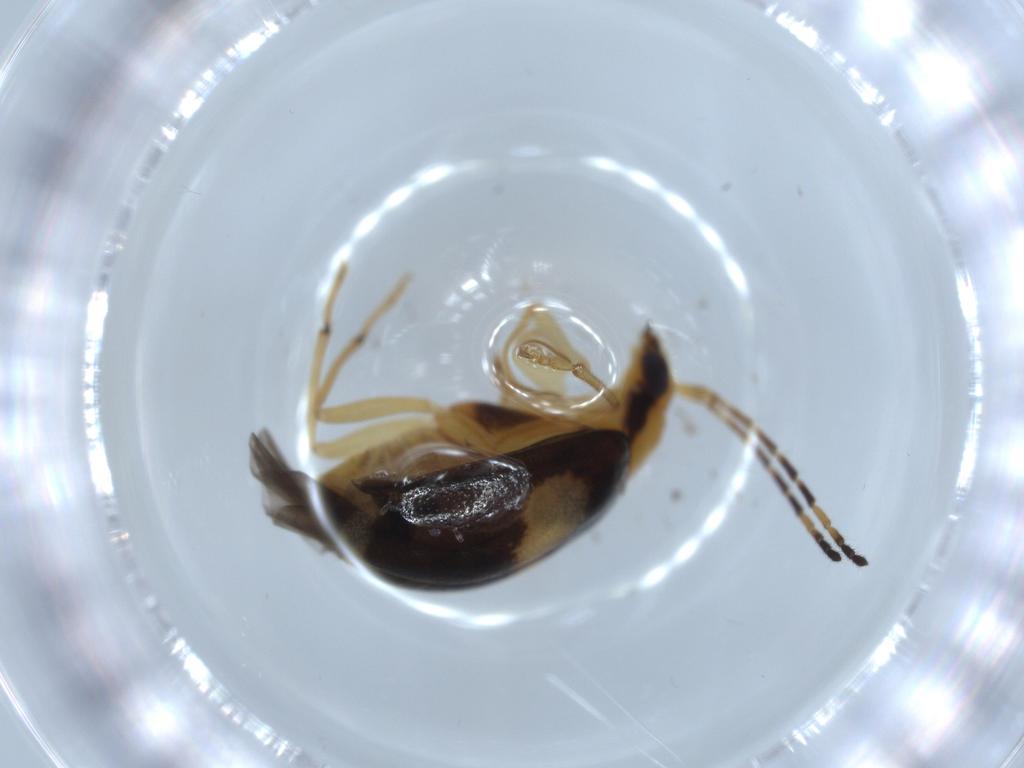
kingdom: Animalia
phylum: Arthropoda
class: Insecta
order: Coleoptera
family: Chrysomelidae
